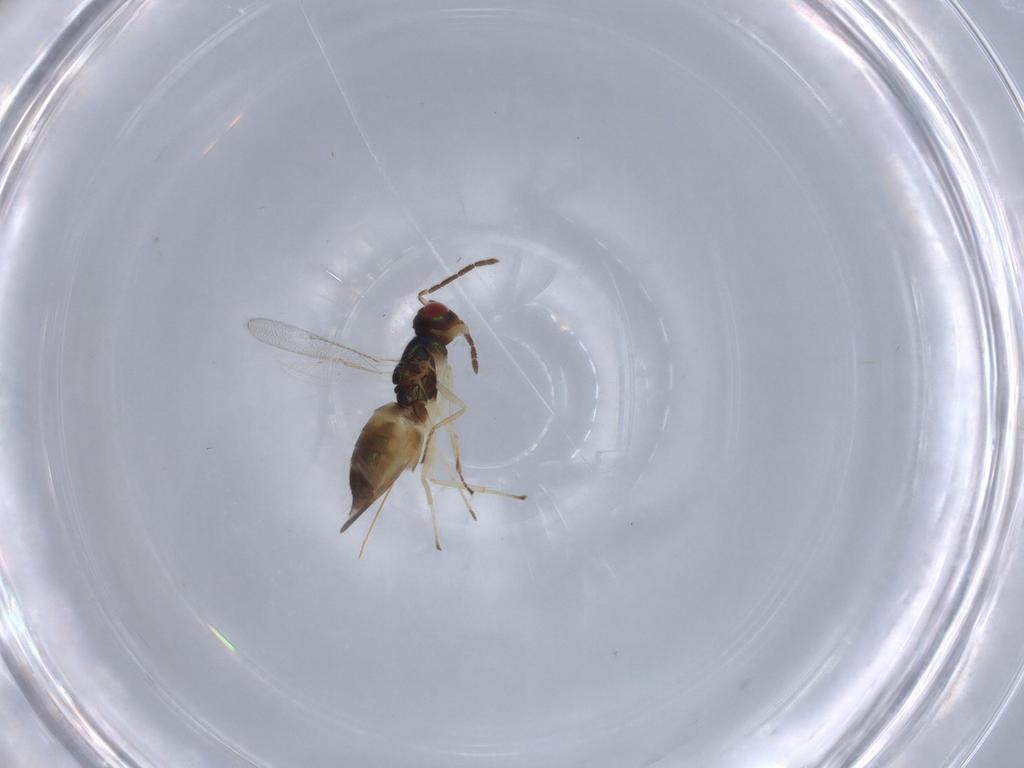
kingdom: Animalia
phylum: Arthropoda
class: Insecta
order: Hymenoptera
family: Eulophidae
